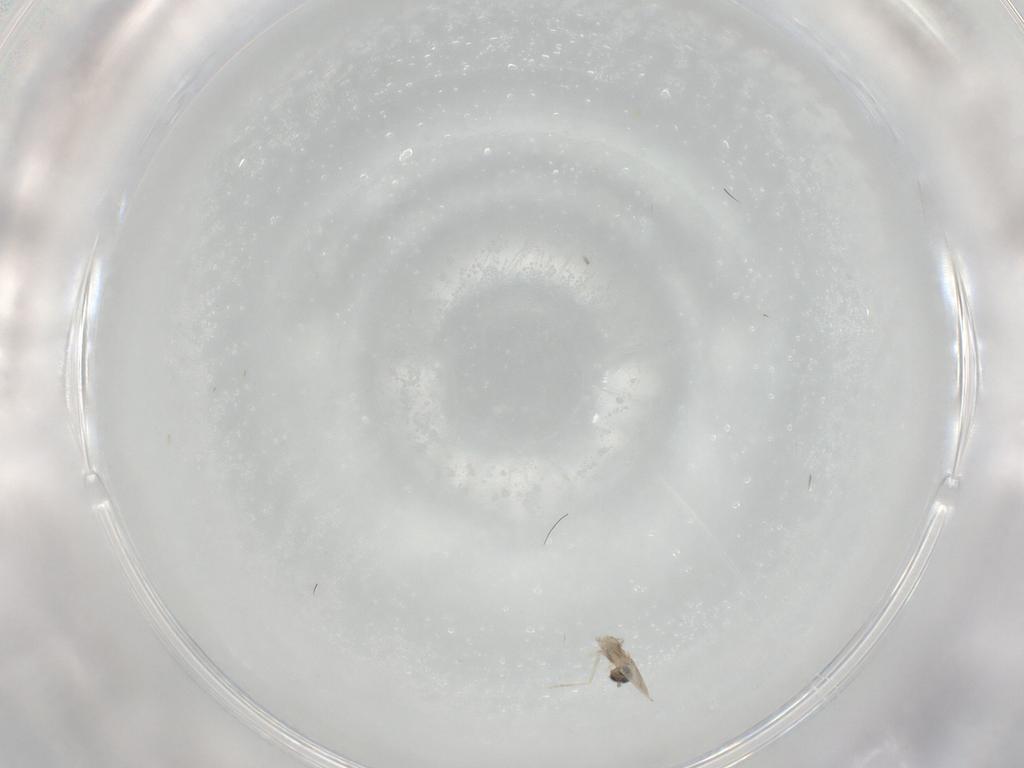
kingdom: Animalia
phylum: Arthropoda
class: Insecta
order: Diptera
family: Cecidomyiidae
